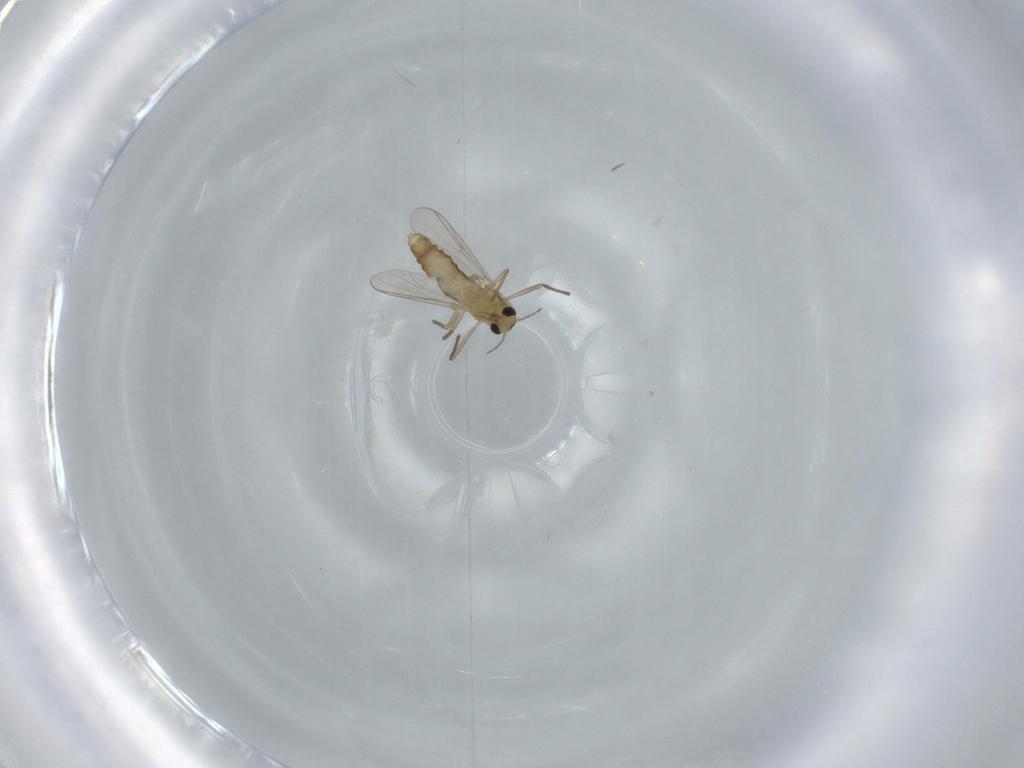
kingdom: Animalia
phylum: Arthropoda
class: Insecta
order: Diptera
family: Chironomidae
